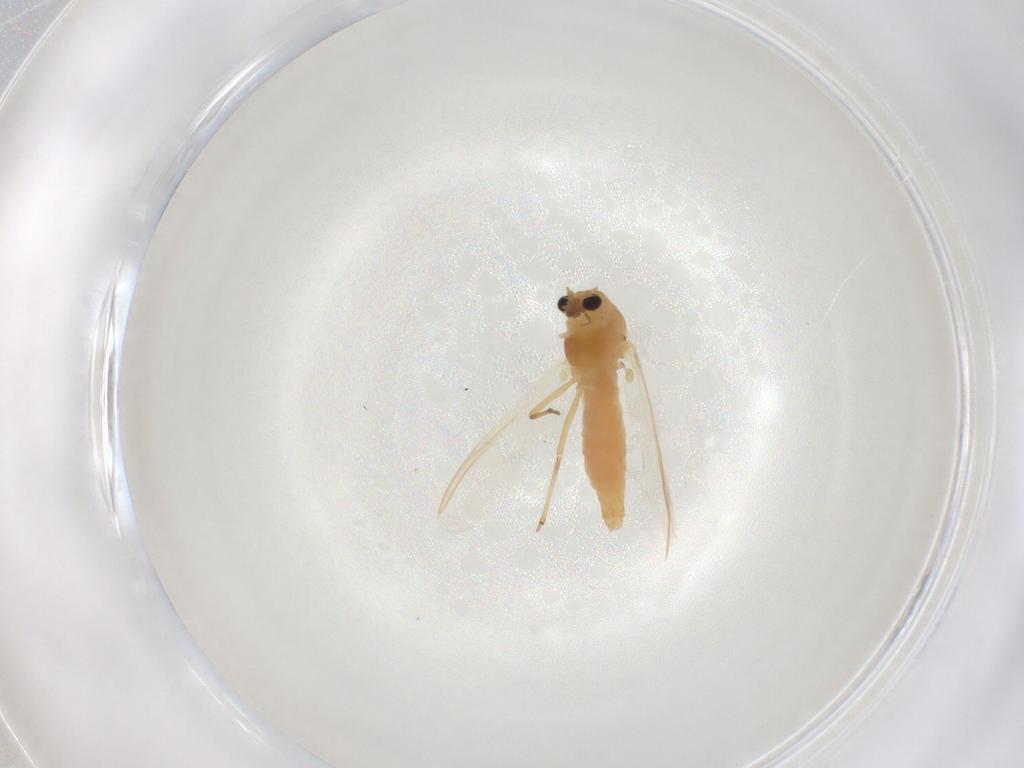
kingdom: Animalia
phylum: Arthropoda
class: Insecta
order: Diptera
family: Chironomidae
